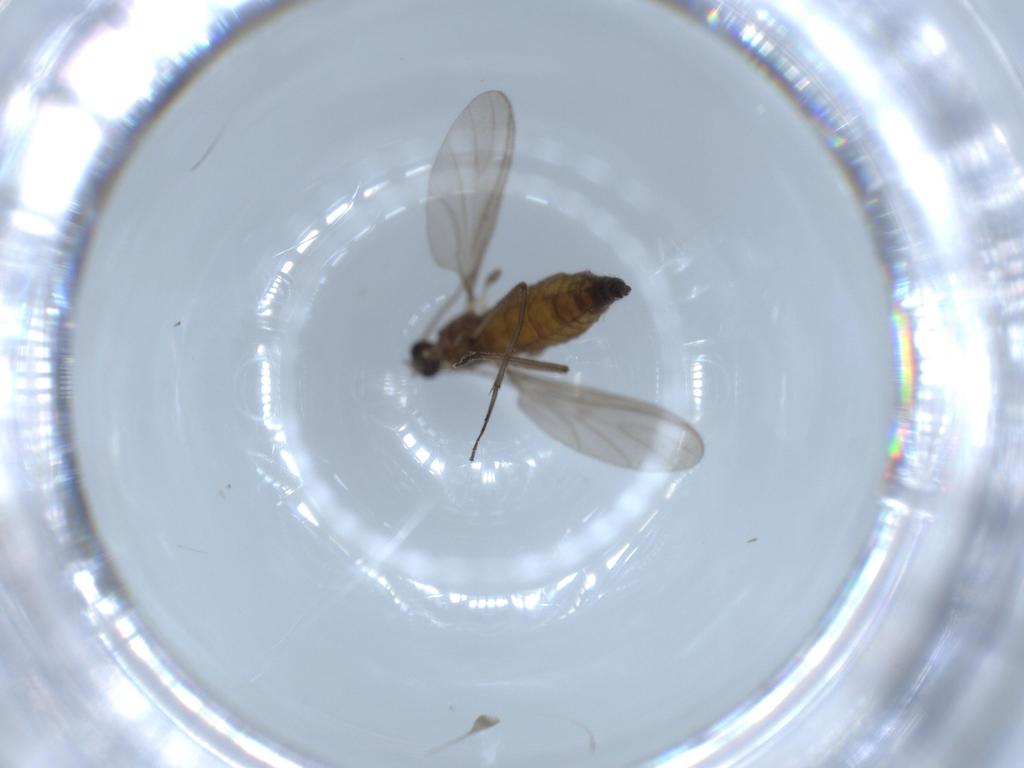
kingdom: Animalia
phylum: Arthropoda
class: Insecta
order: Diptera
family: Sciaridae
